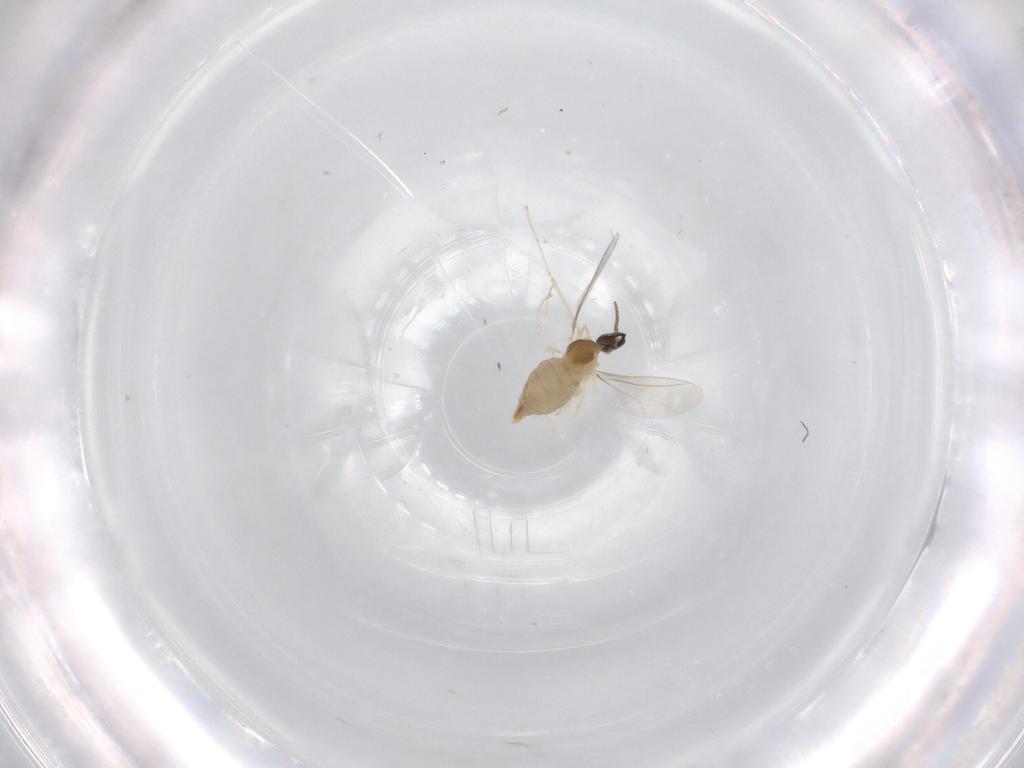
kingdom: Animalia
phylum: Arthropoda
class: Insecta
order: Diptera
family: Cecidomyiidae
